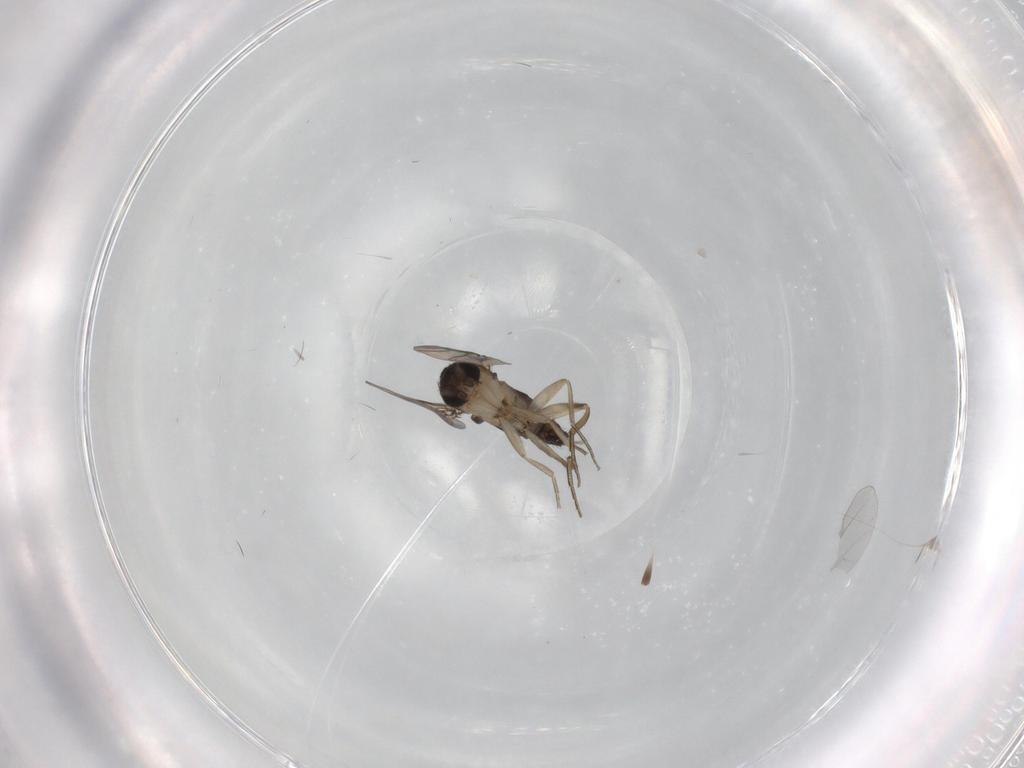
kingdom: Animalia
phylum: Arthropoda
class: Insecta
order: Diptera
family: Phoridae
